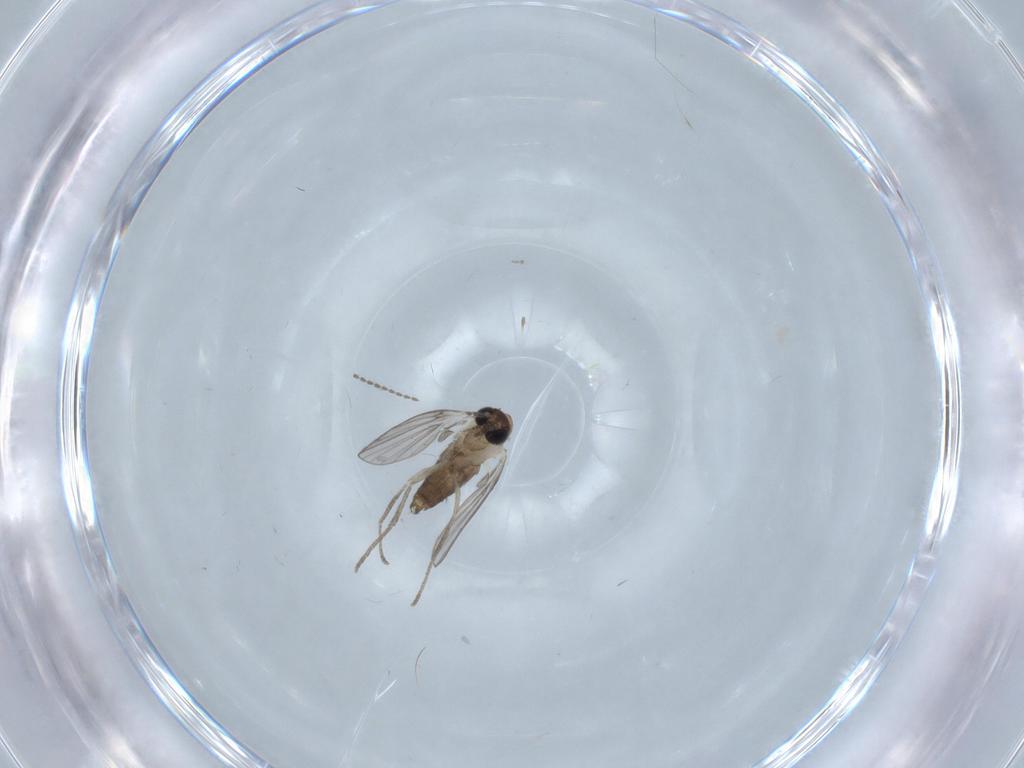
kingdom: Animalia
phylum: Arthropoda
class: Insecta
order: Diptera
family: Psychodidae
